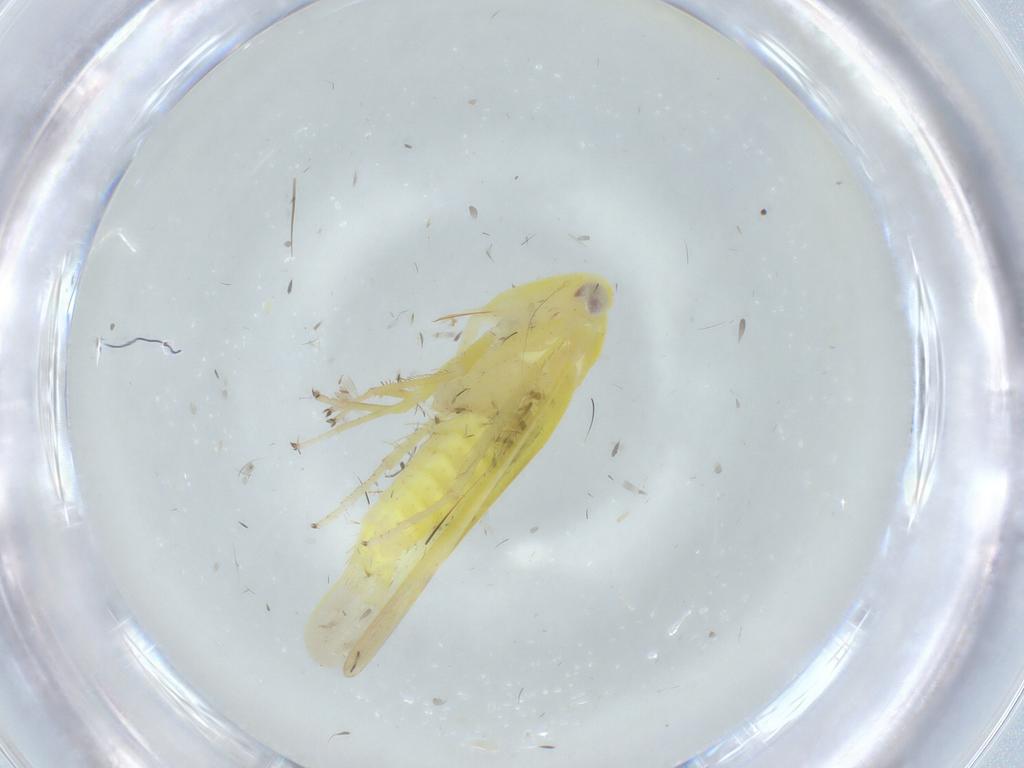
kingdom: Animalia
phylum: Arthropoda
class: Insecta
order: Hemiptera
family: Cicadellidae
